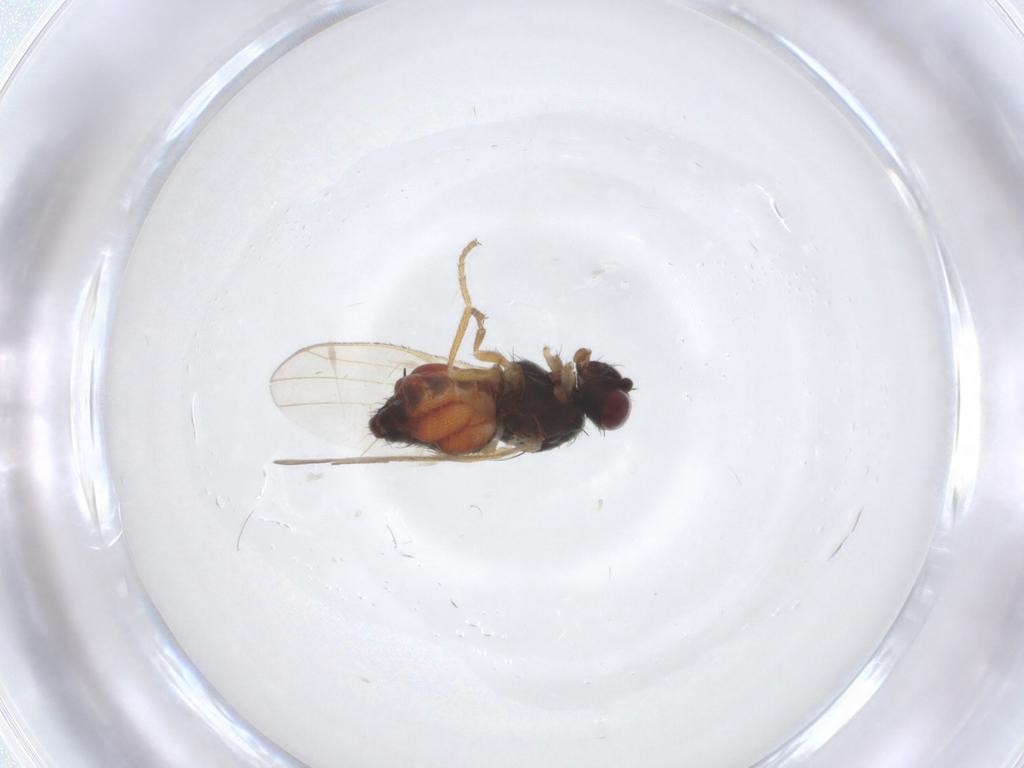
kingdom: Animalia
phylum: Arthropoda
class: Insecta
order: Diptera
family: Heleomyzidae
